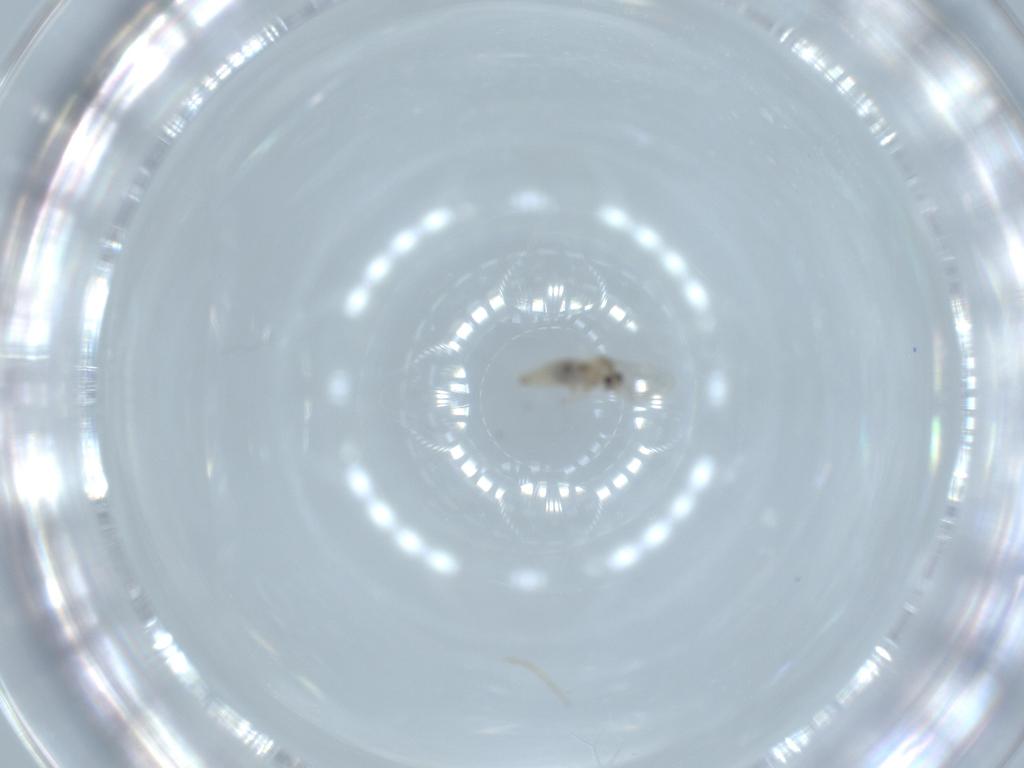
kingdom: Animalia
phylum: Arthropoda
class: Insecta
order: Diptera
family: Cecidomyiidae
